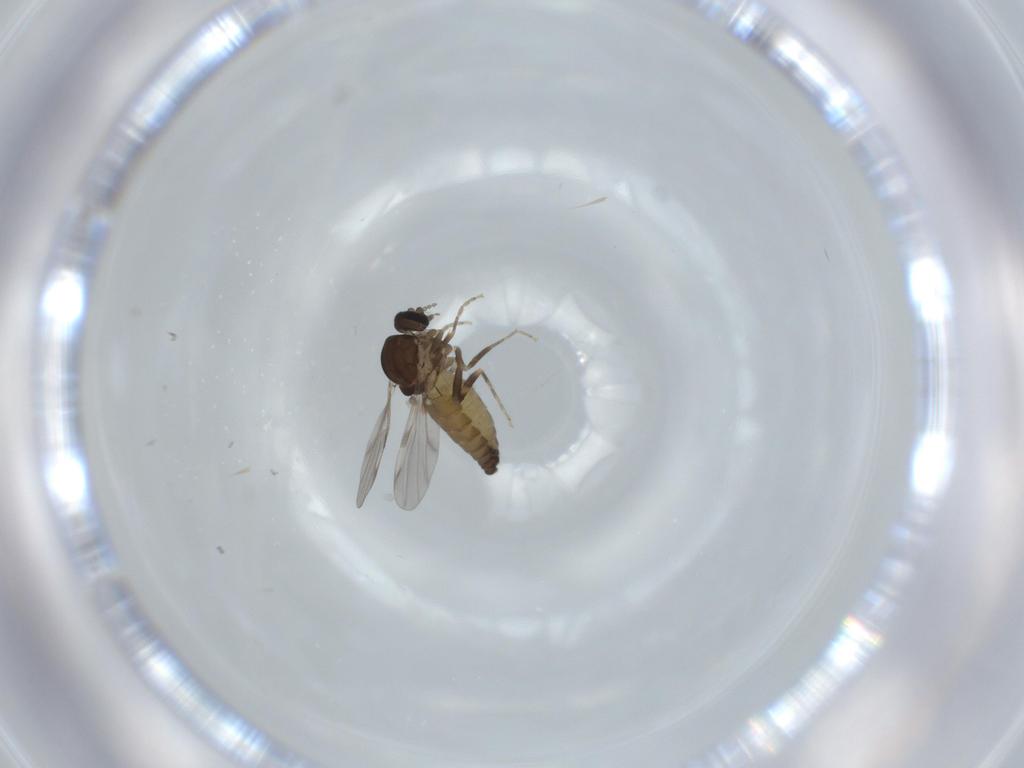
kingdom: Animalia
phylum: Arthropoda
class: Insecta
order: Diptera
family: Ceratopogonidae
